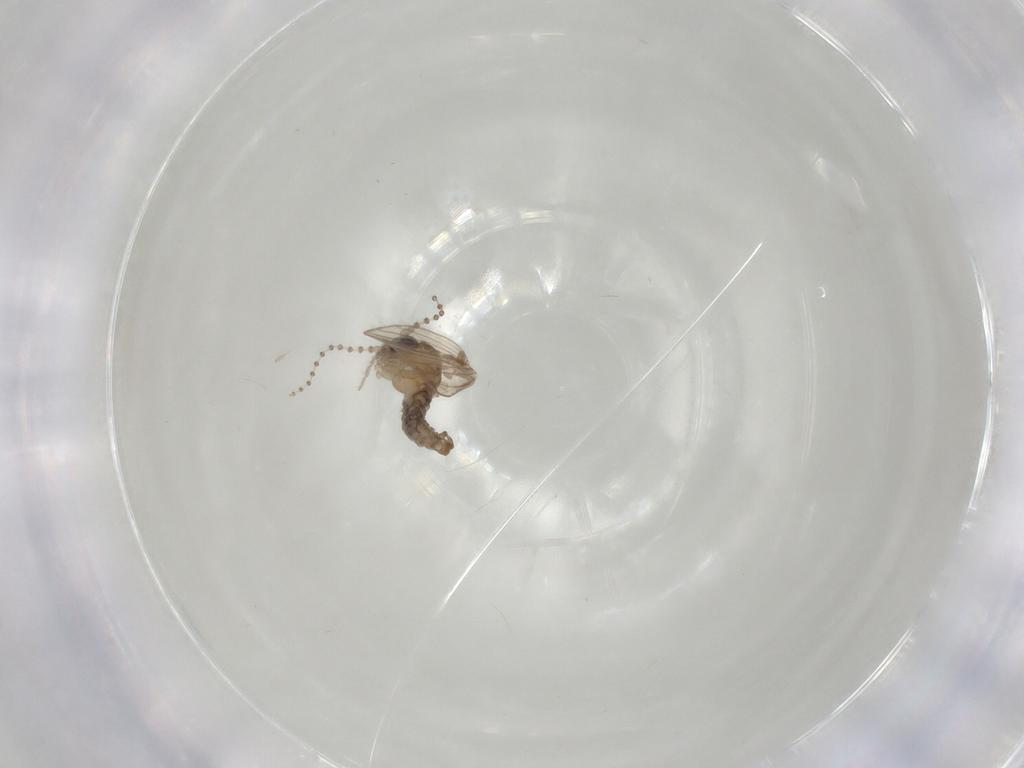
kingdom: Animalia
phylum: Arthropoda
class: Insecta
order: Diptera
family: Psychodidae
